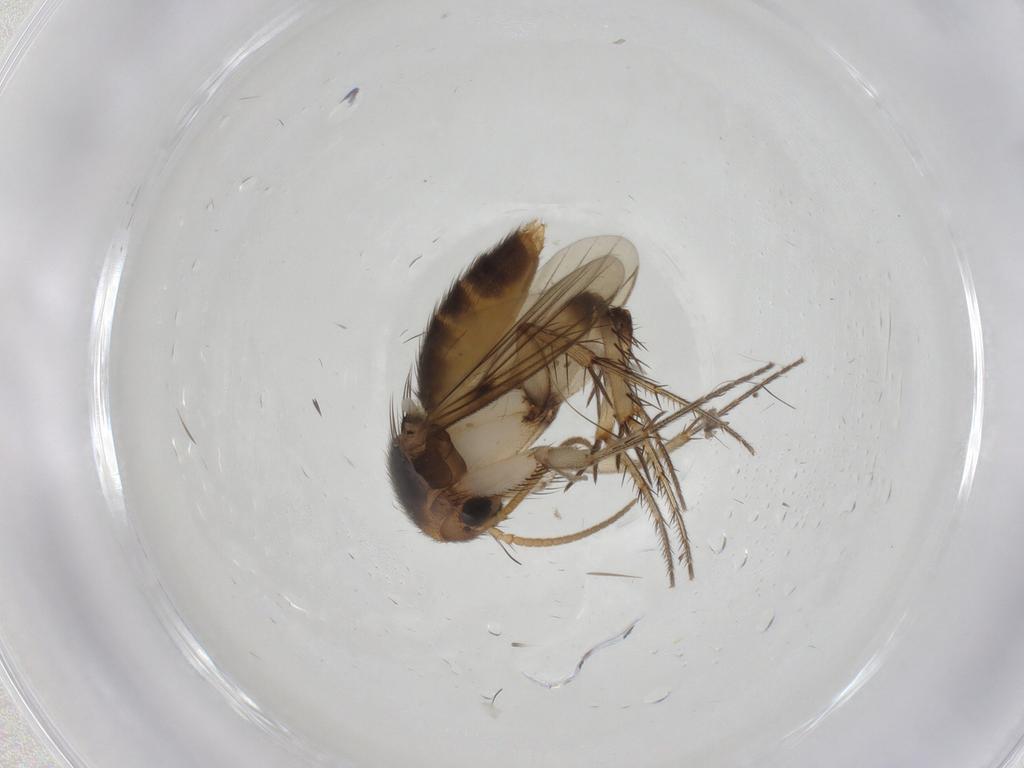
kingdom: Animalia
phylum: Arthropoda
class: Insecta
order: Diptera
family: Mycetophilidae
